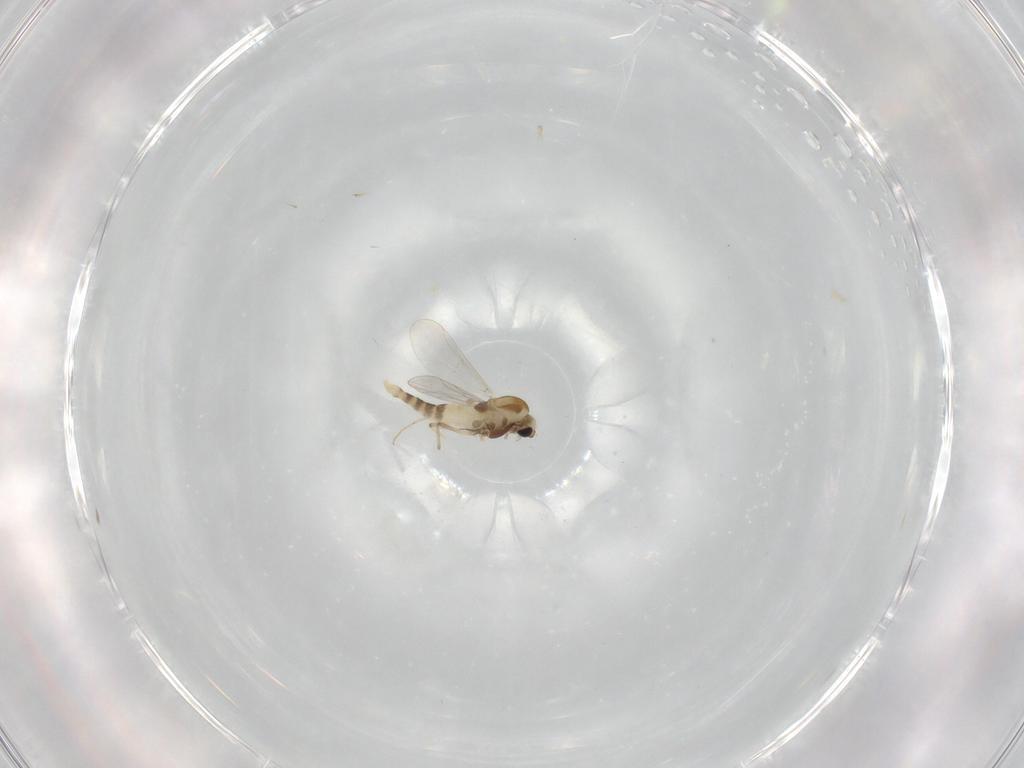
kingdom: Animalia
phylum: Arthropoda
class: Insecta
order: Diptera
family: Chironomidae
